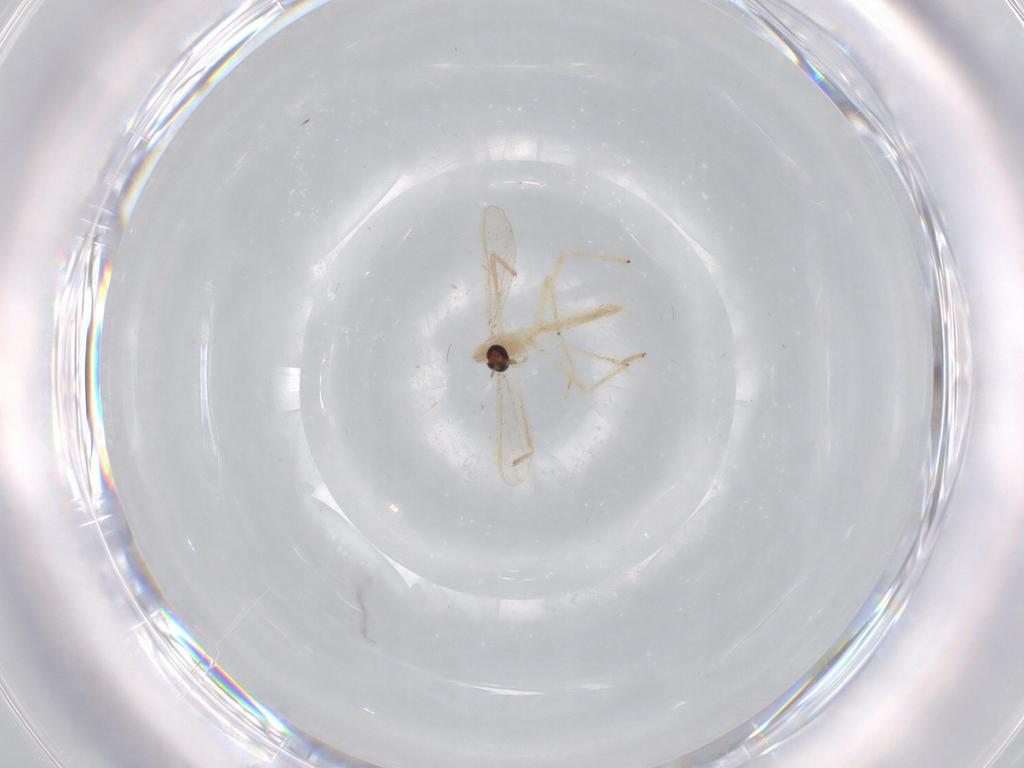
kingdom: Animalia
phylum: Arthropoda
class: Insecta
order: Diptera
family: Chironomidae
